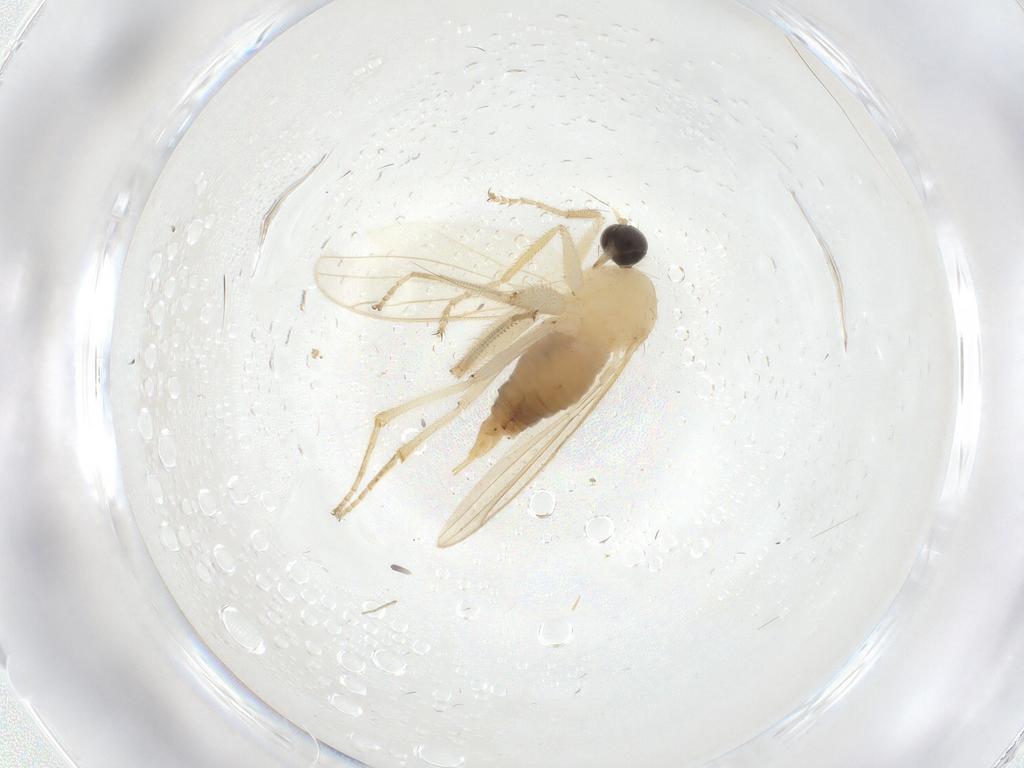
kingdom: Animalia
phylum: Arthropoda
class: Insecta
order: Diptera
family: Hybotidae
